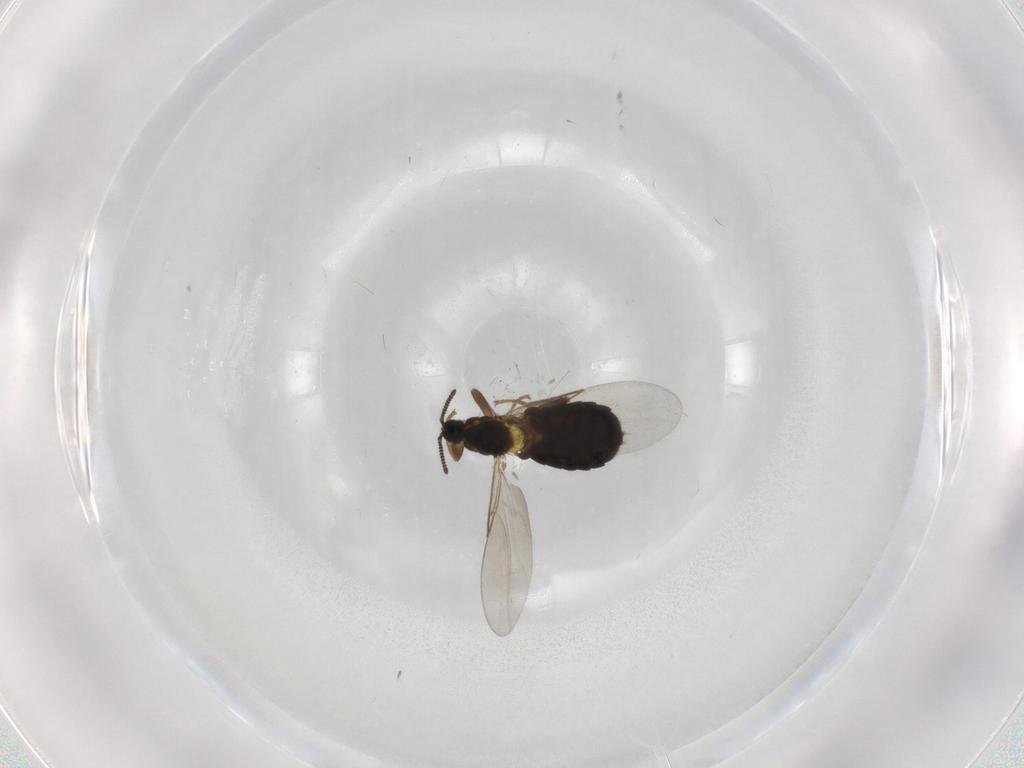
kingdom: Animalia
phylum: Arthropoda
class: Insecta
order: Diptera
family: Scatopsidae
